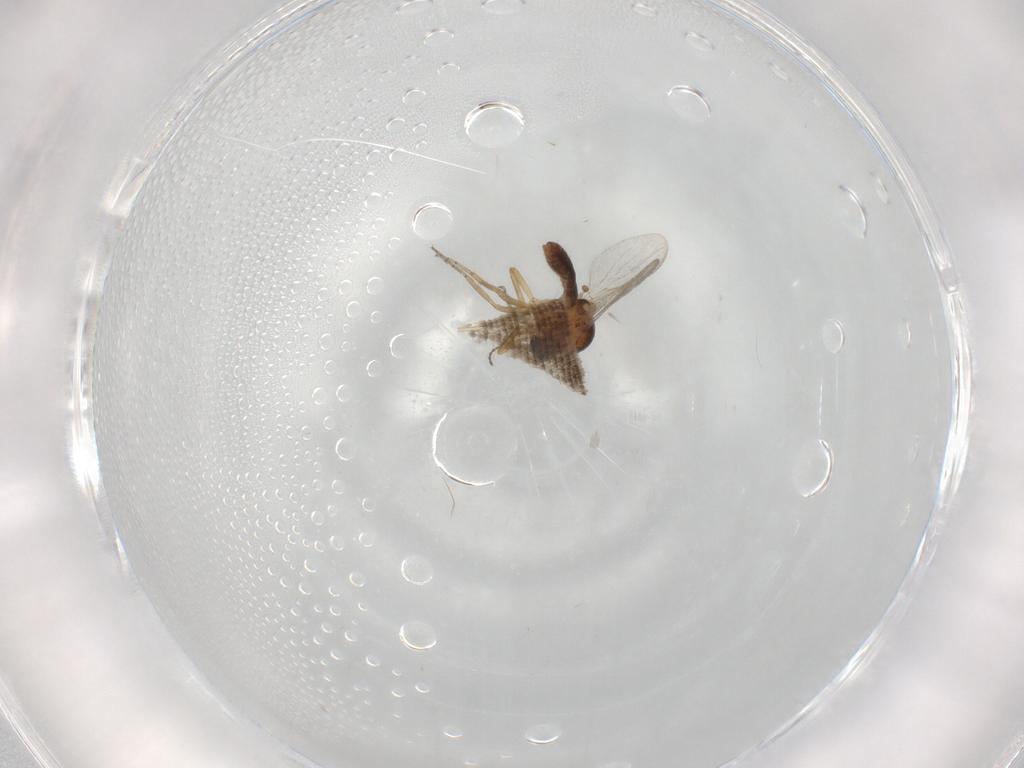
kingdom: Animalia
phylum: Arthropoda
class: Insecta
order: Diptera
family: Ceratopogonidae
